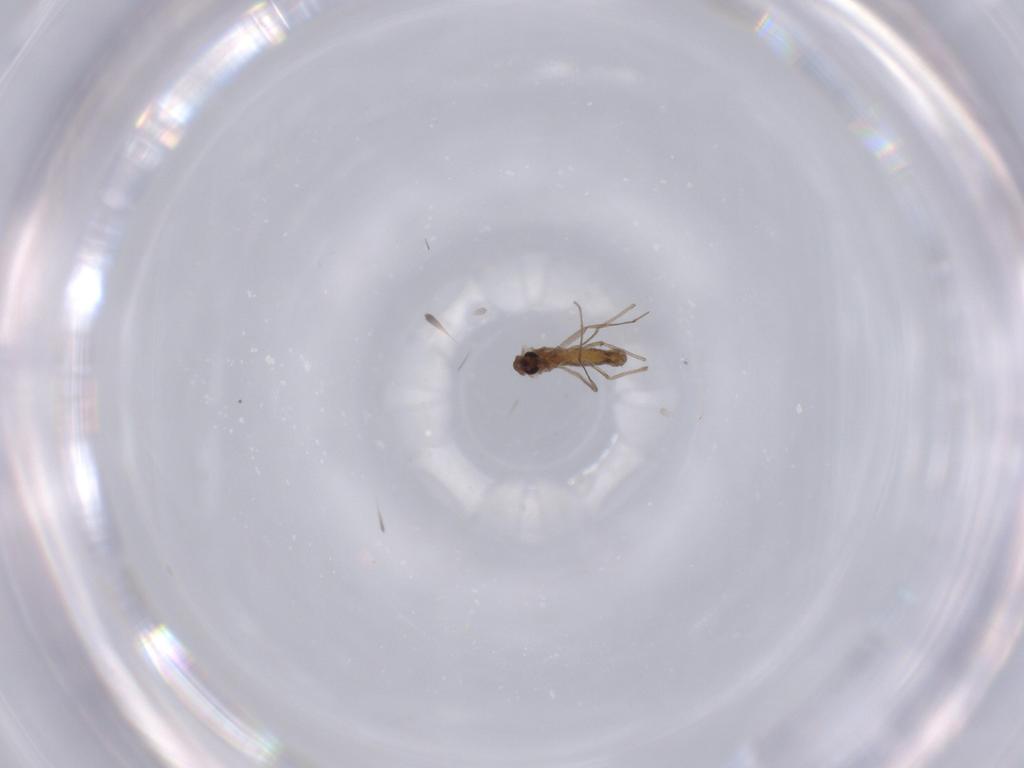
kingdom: Animalia
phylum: Arthropoda
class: Insecta
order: Diptera
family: Chironomidae
